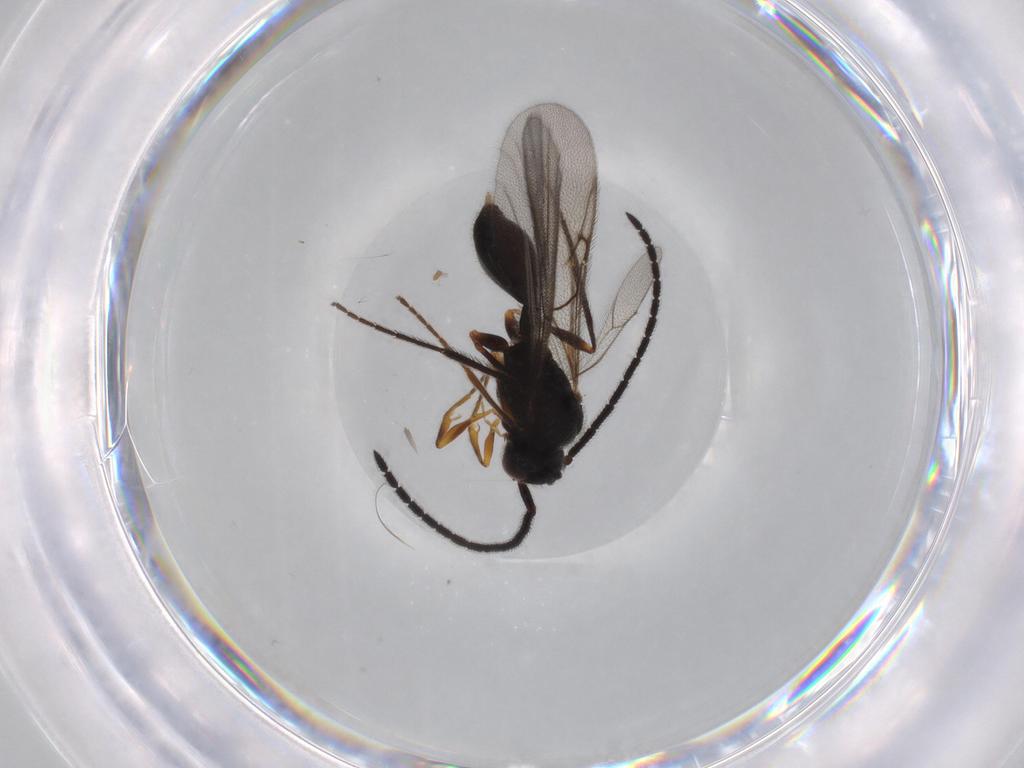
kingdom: Animalia
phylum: Arthropoda
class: Insecta
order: Hymenoptera
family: Diapriidae
